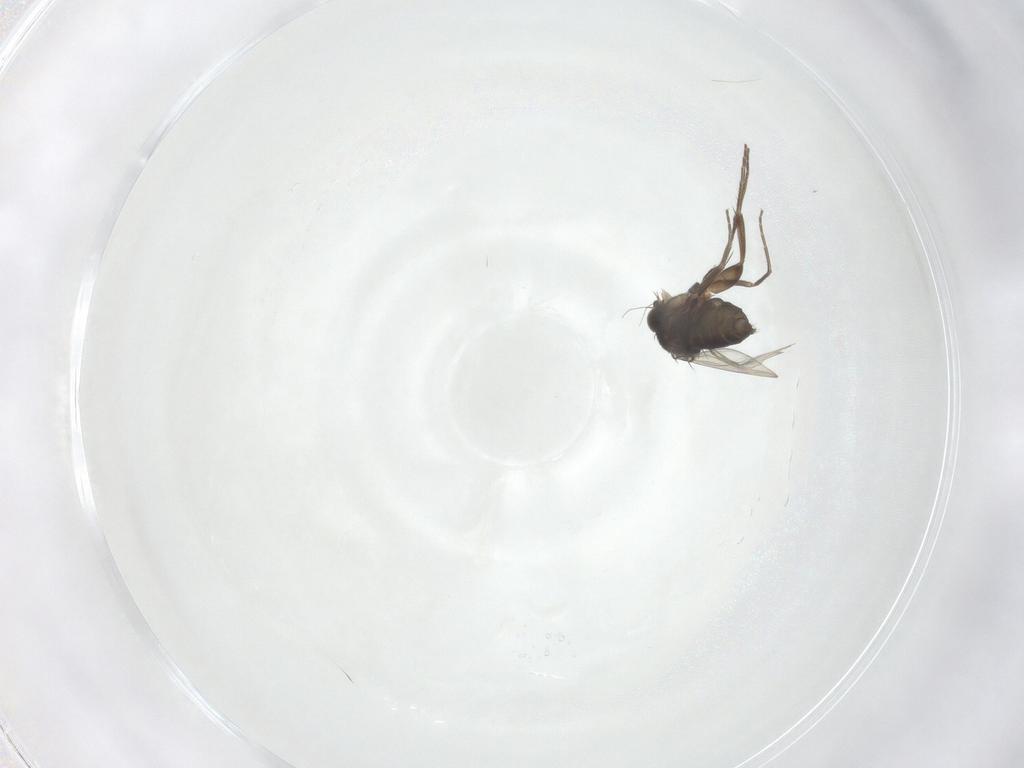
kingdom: Animalia
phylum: Arthropoda
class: Insecta
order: Diptera
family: Phoridae
